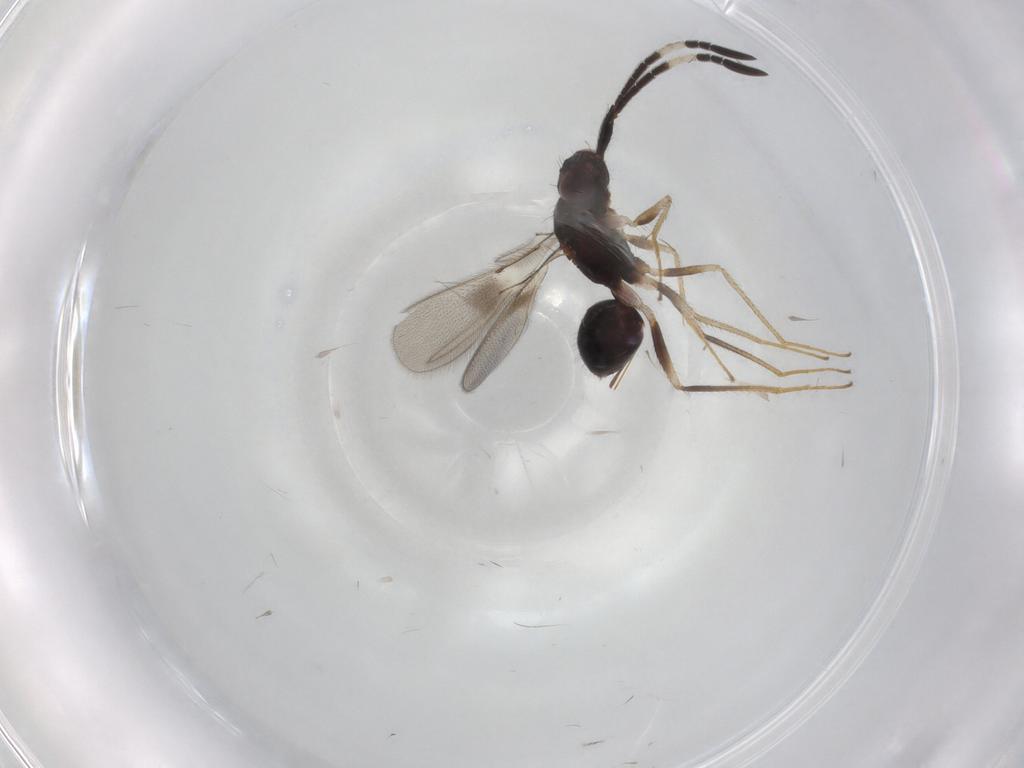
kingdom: Animalia
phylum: Arthropoda
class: Insecta
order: Hymenoptera
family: Mymaridae
